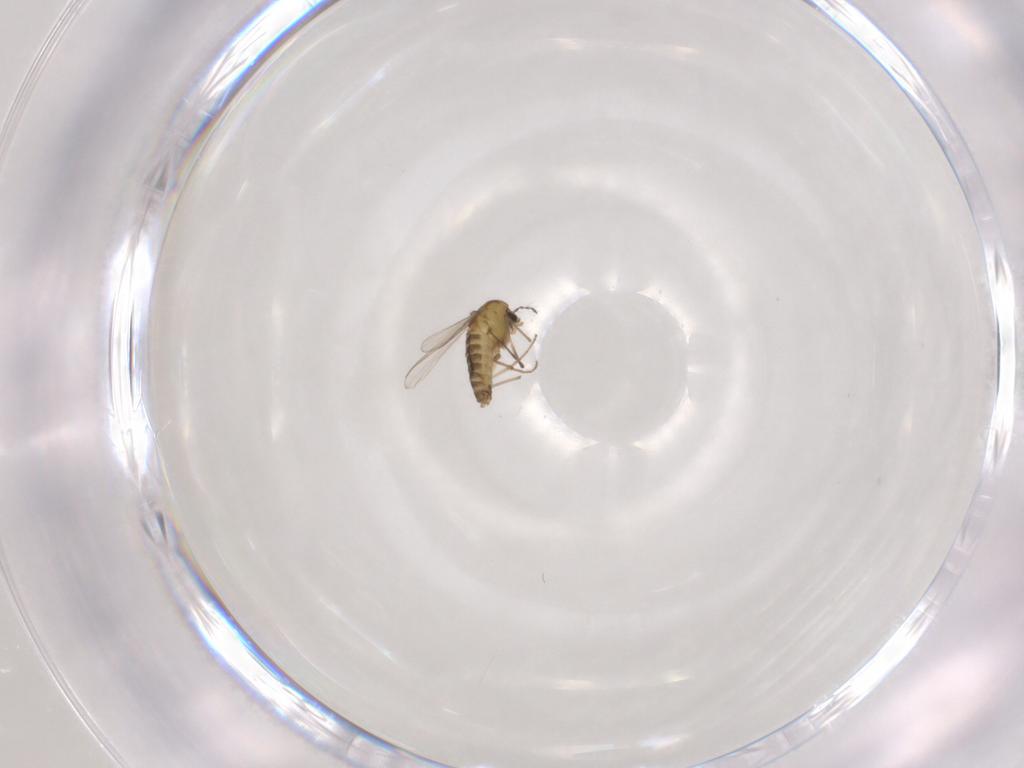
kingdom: Animalia
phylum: Arthropoda
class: Insecta
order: Diptera
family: Chironomidae
